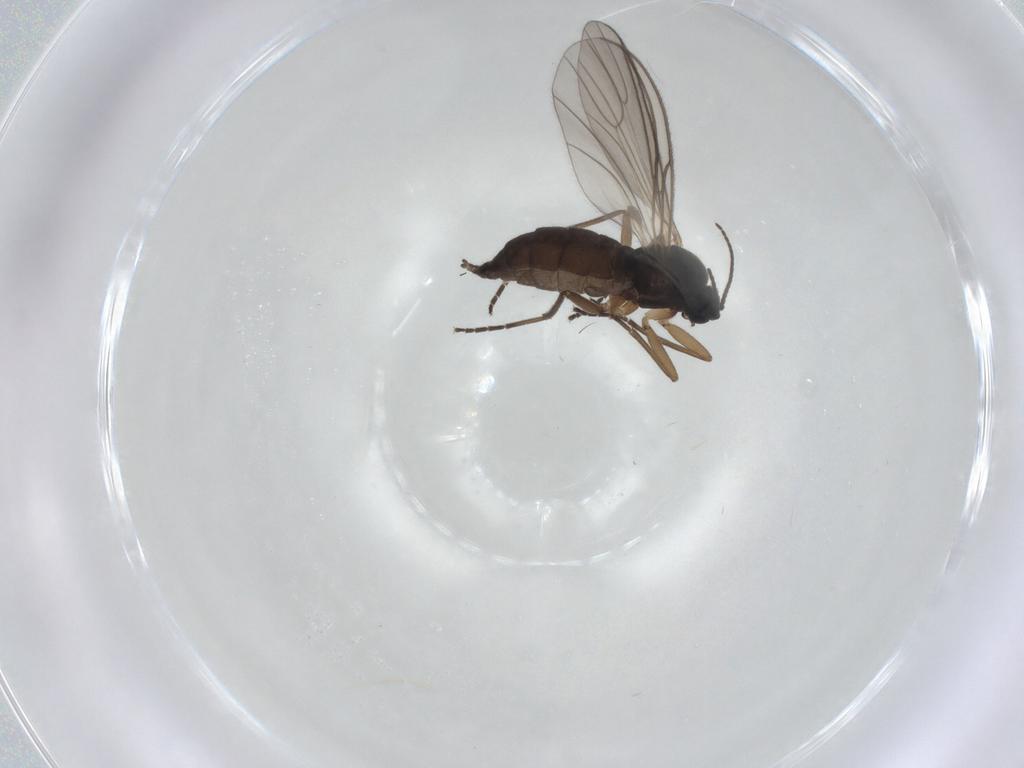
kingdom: Animalia
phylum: Arthropoda
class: Insecta
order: Diptera
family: Sciaridae
